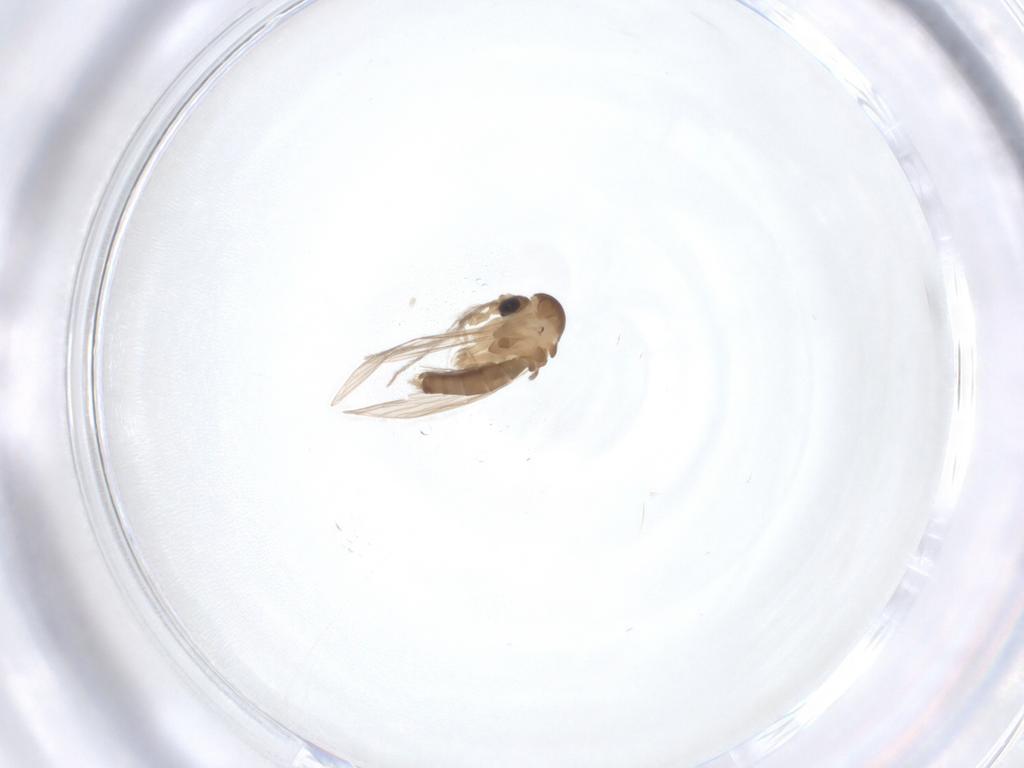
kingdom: Animalia
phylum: Arthropoda
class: Insecta
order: Diptera
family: Psychodidae
